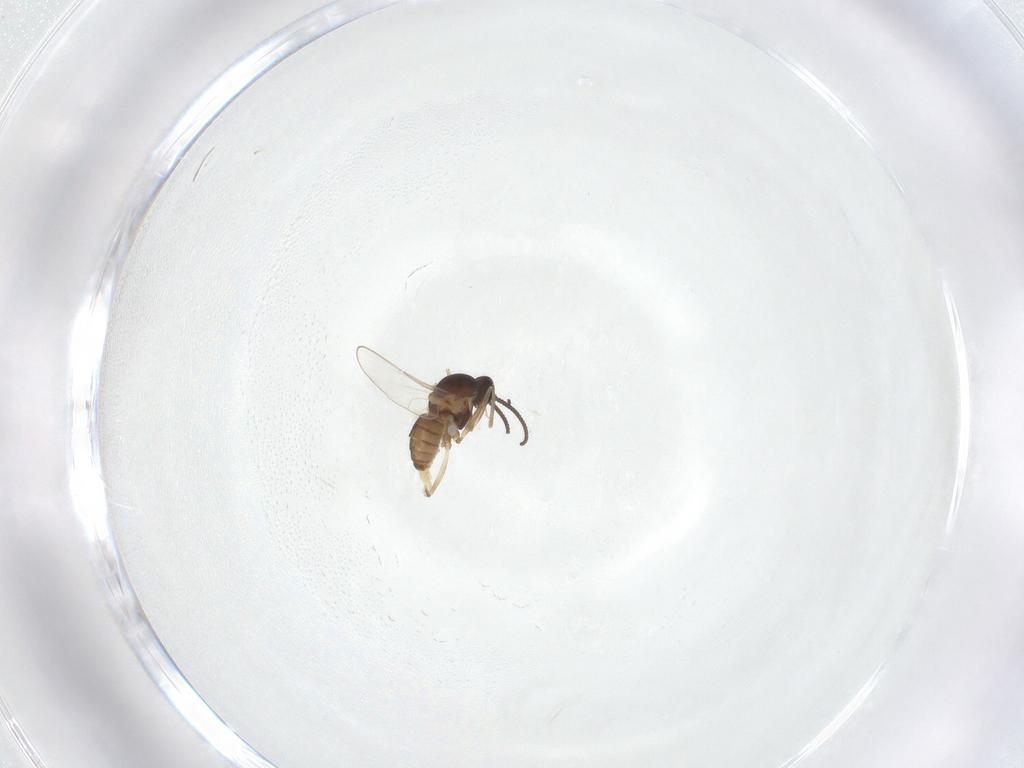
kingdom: Animalia
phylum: Arthropoda
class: Insecta
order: Diptera
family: Cecidomyiidae
